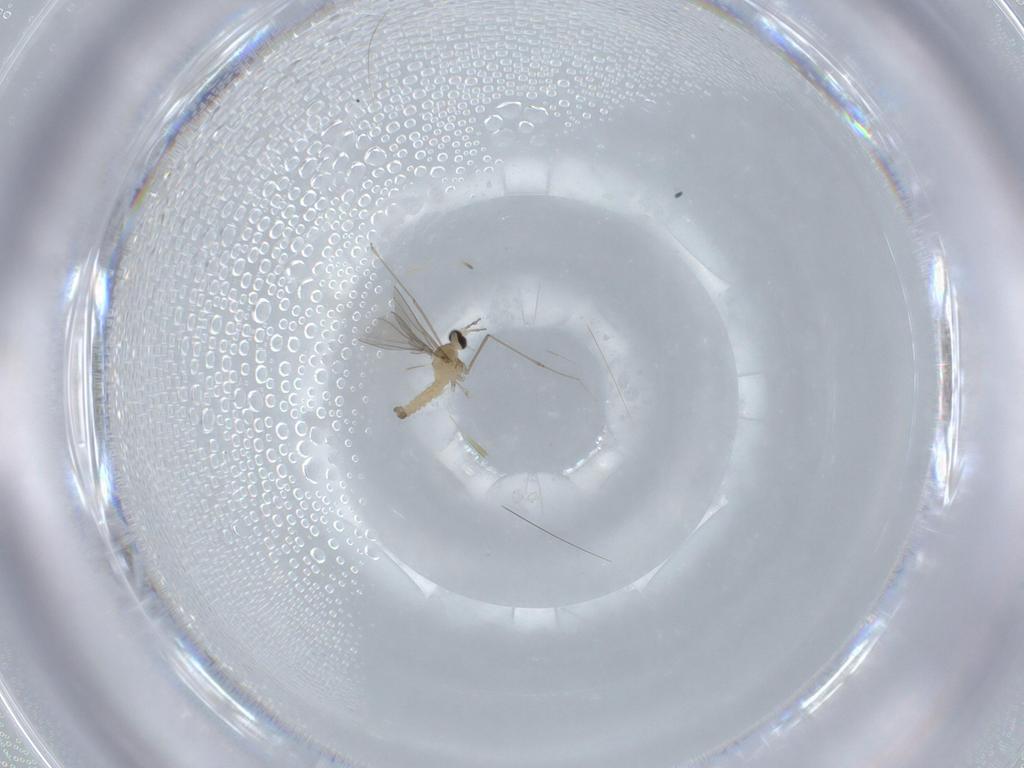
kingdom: Animalia
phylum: Arthropoda
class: Insecta
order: Diptera
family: Cecidomyiidae
